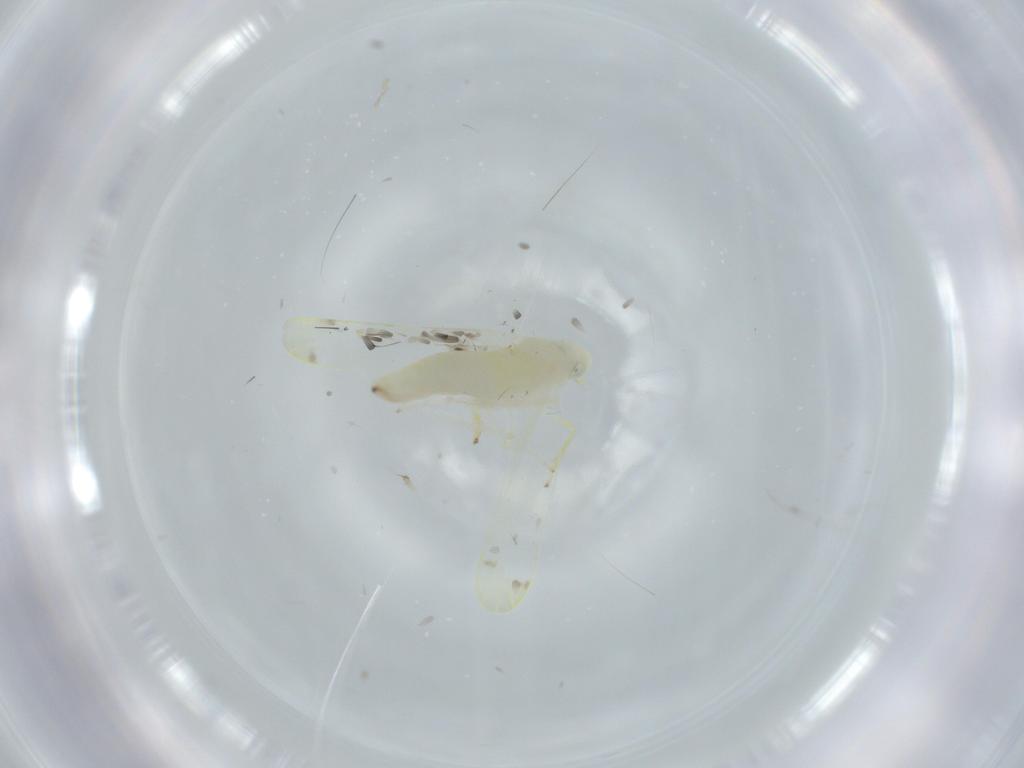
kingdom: Animalia
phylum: Arthropoda
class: Insecta
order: Hemiptera
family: Cicadellidae
